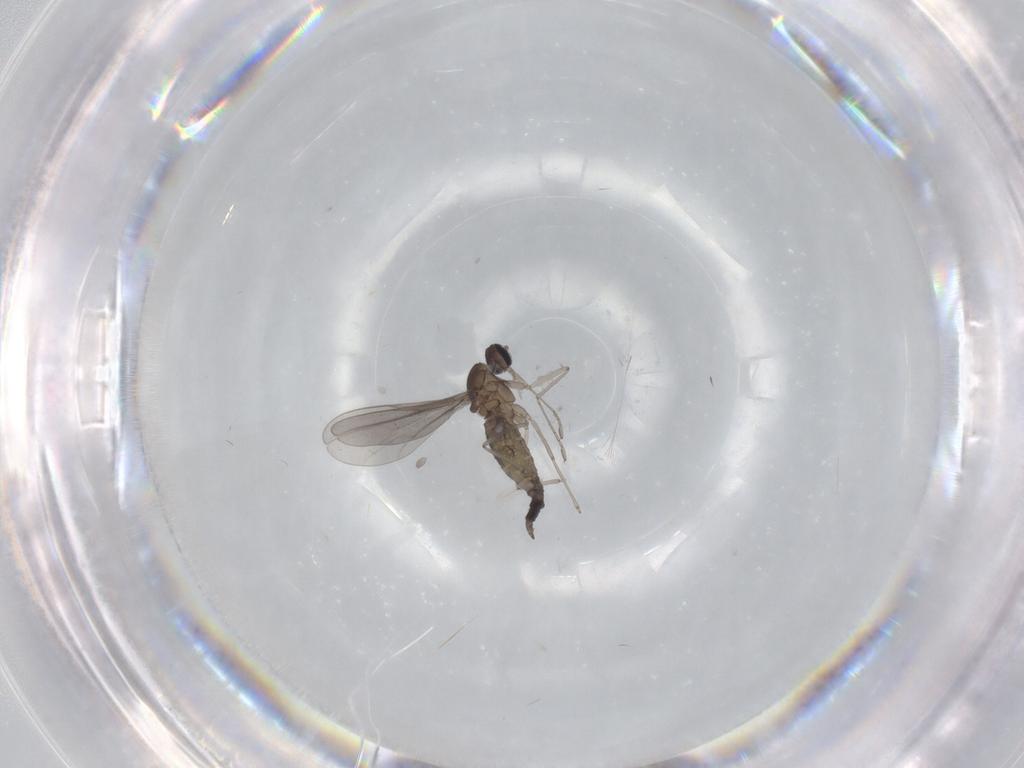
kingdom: Animalia
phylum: Arthropoda
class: Insecta
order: Diptera
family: Cecidomyiidae
